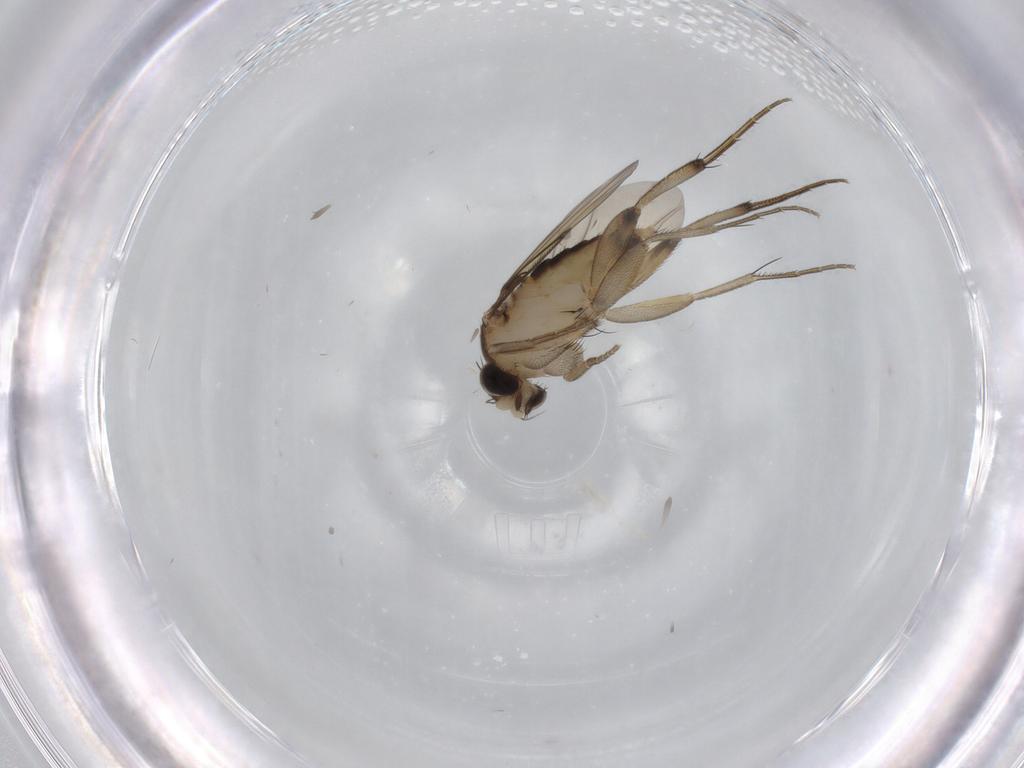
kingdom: Animalia
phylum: Arthropoda
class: Insecta
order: Diptera
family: Phoridae
